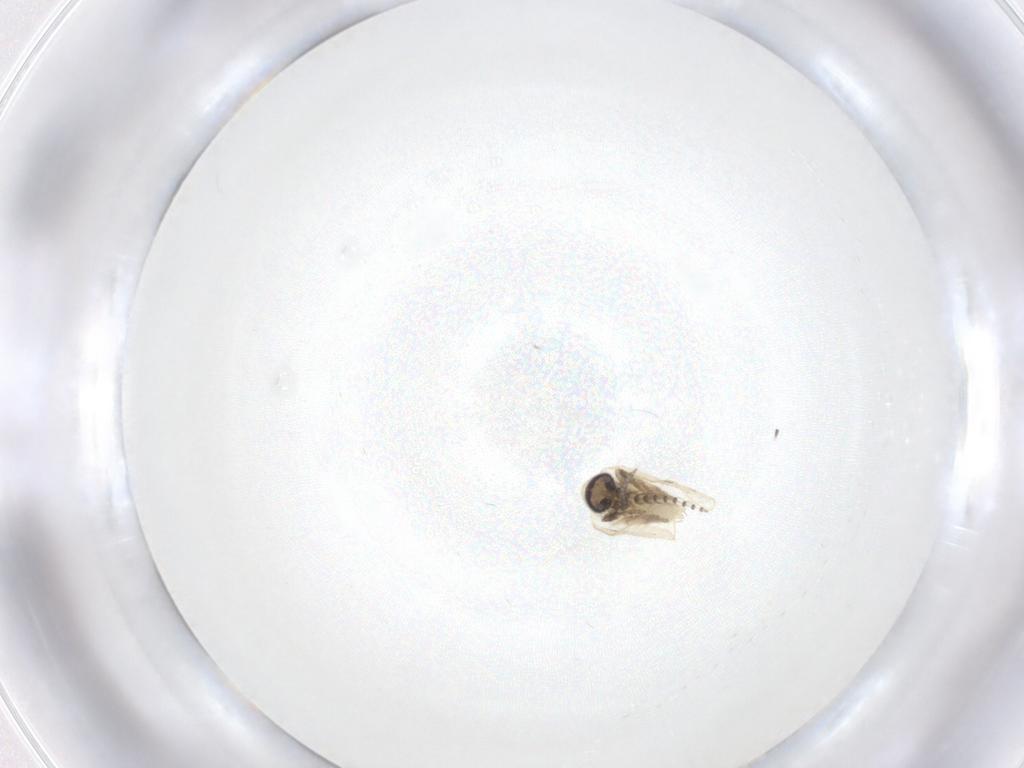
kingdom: Animalia
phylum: Arthropoda
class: Insecta
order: Diptera
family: Psychodidae
